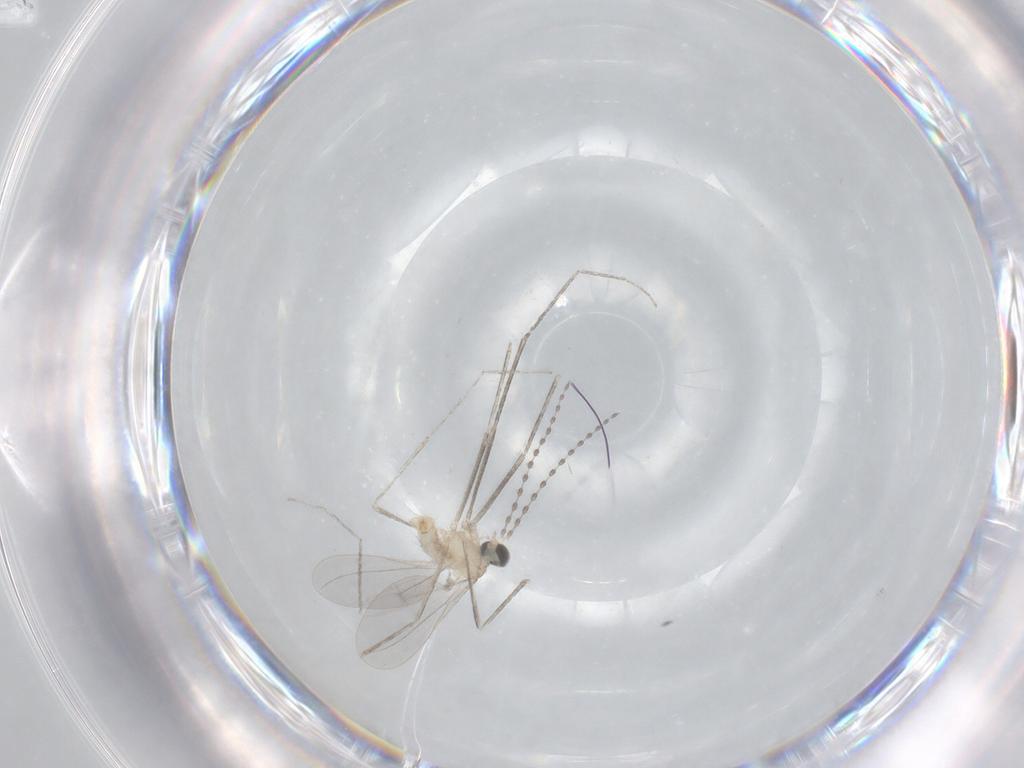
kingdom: Animalia
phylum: Arthropoda
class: Insecta
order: Diptera
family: Cecidomyiidae
